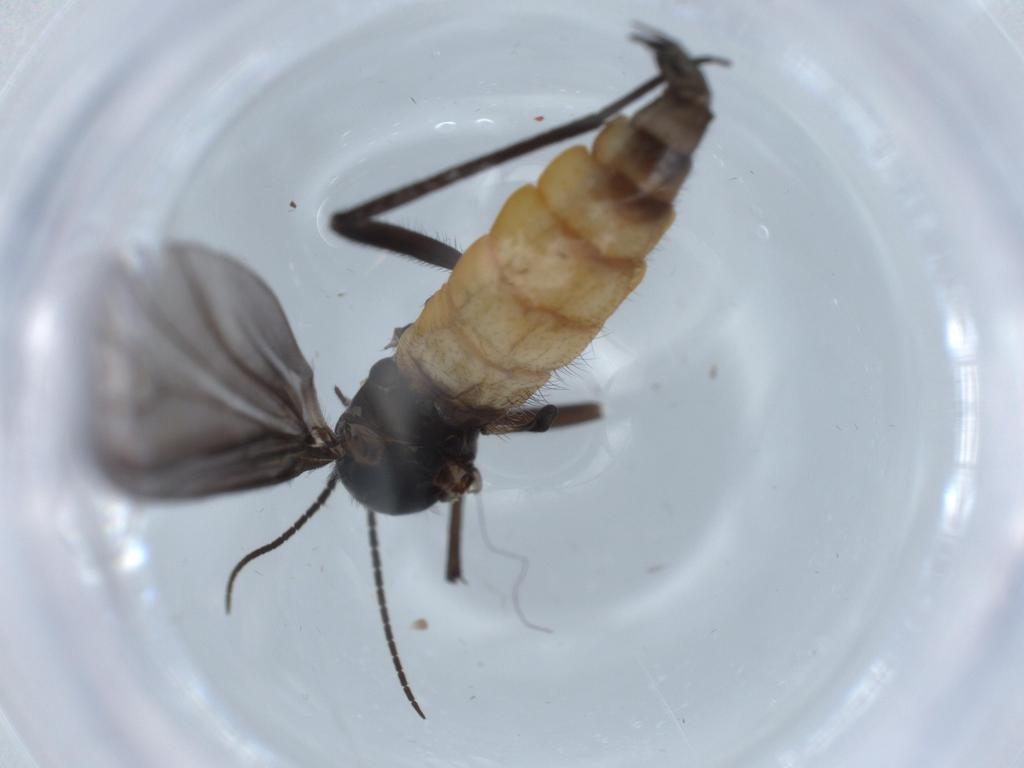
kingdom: Animalia
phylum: Arthropoda
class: Insecta
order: Diptera
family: Sciaridae
